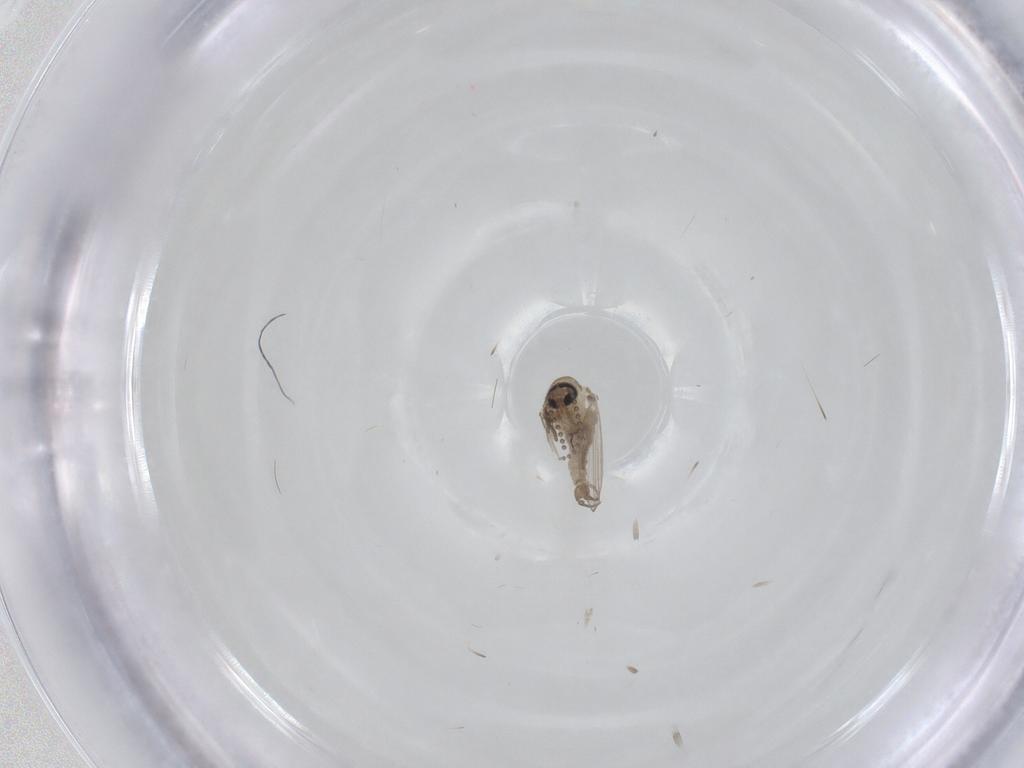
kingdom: Animalia
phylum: Arthropoda
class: Insecta
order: Diptera
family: Psychodidae
